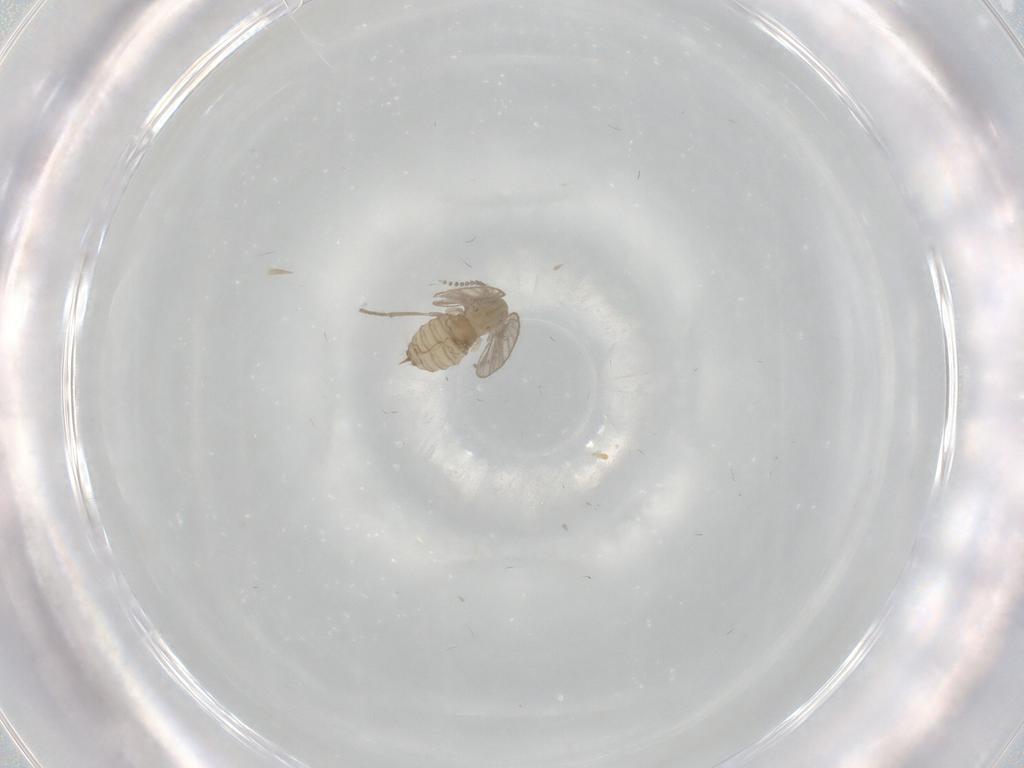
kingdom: Animalia
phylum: Arthropoda
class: Insecta
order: Diptera
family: Psychodidae
